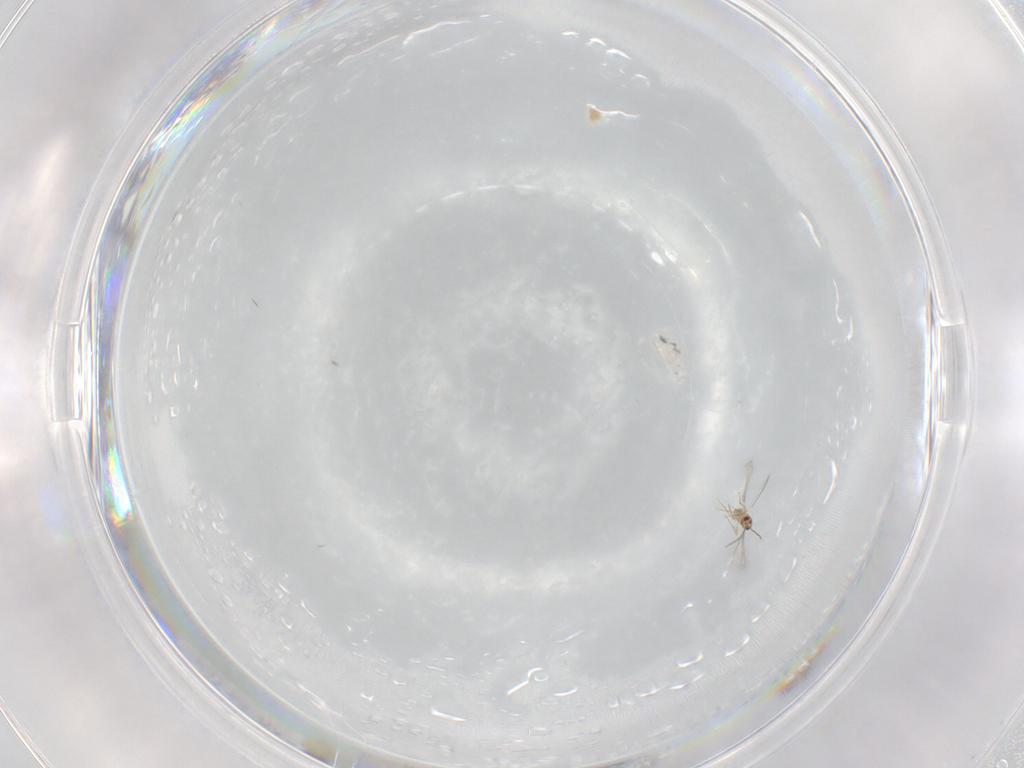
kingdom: Animalia
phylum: Arthropoda
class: Insecta
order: Hymenoptera
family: Mymaridae
